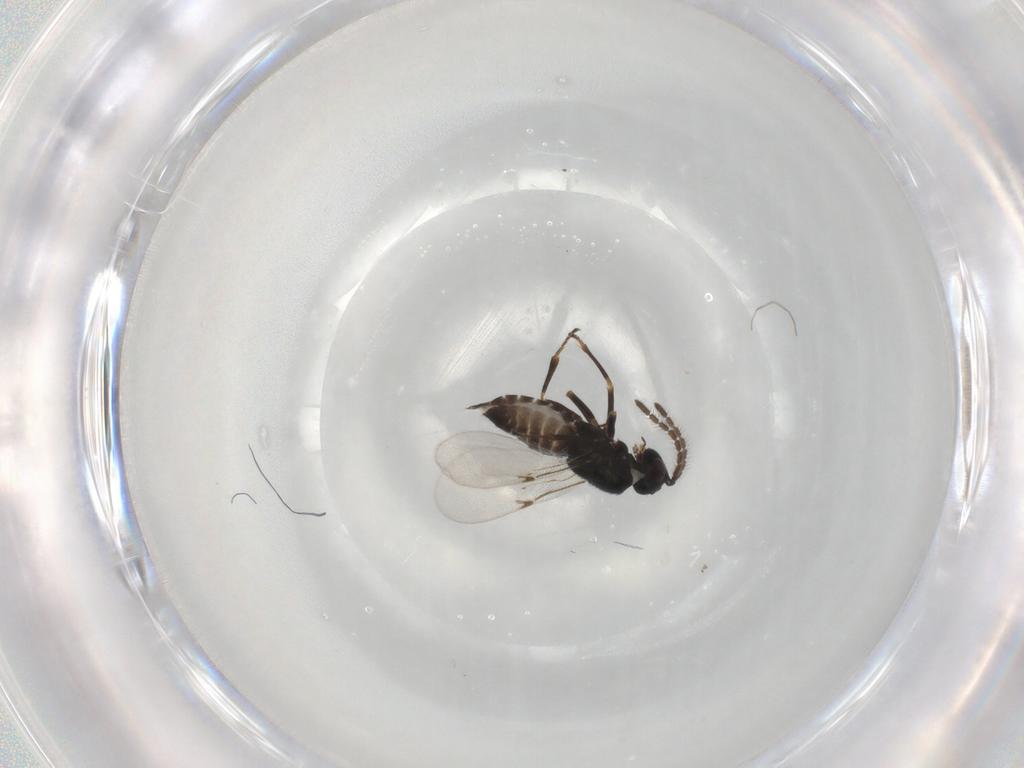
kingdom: Animalia
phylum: Arthropoda
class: Insecta
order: Hymenoptera
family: Encyrtidae
